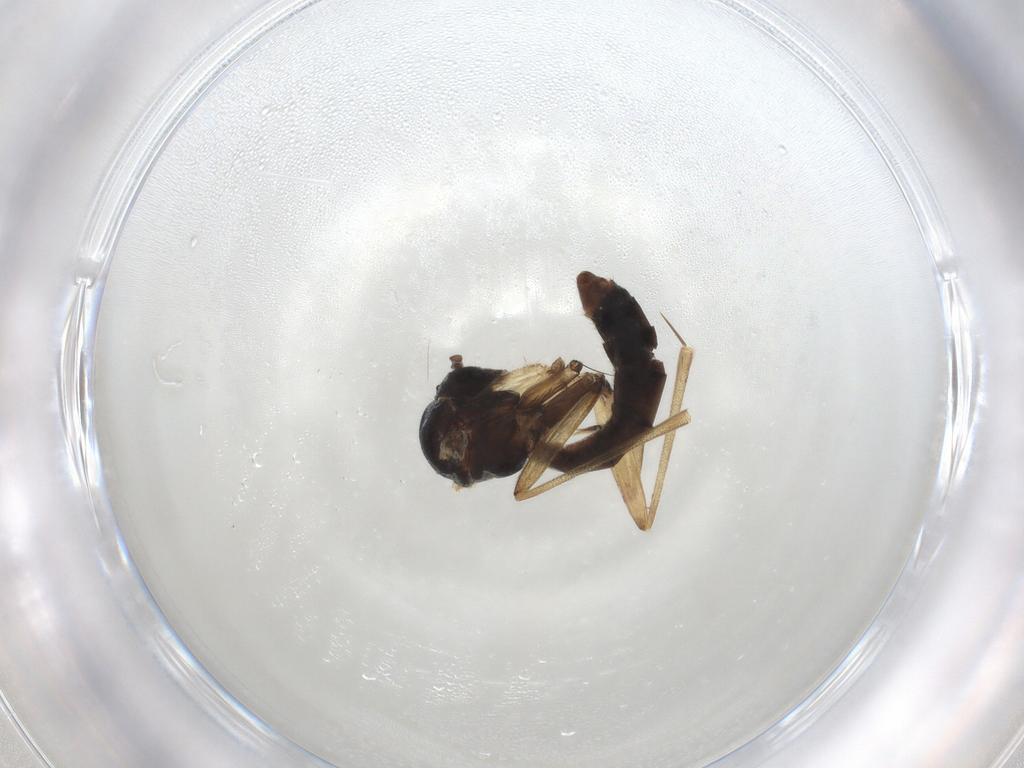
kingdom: Animalia
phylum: Arthropoda
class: Insecta
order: Diptera
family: Mycetophilidae
